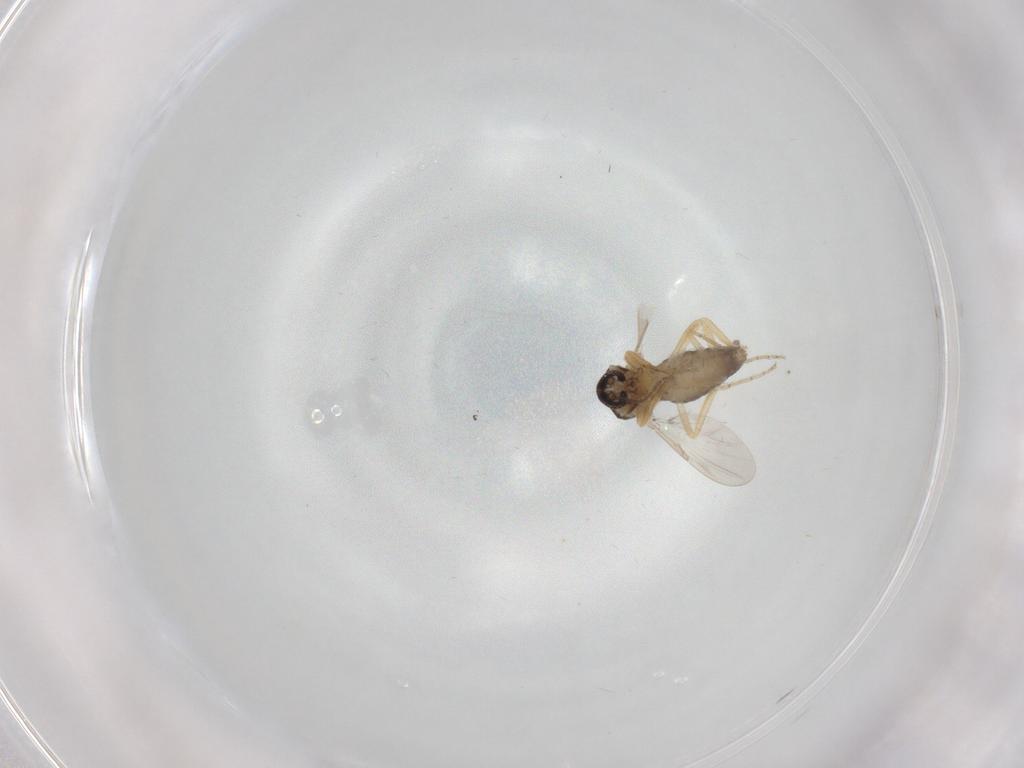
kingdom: Animalia
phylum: Arthropoda
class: Insecta
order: Diptera
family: Ceratopogonidae
